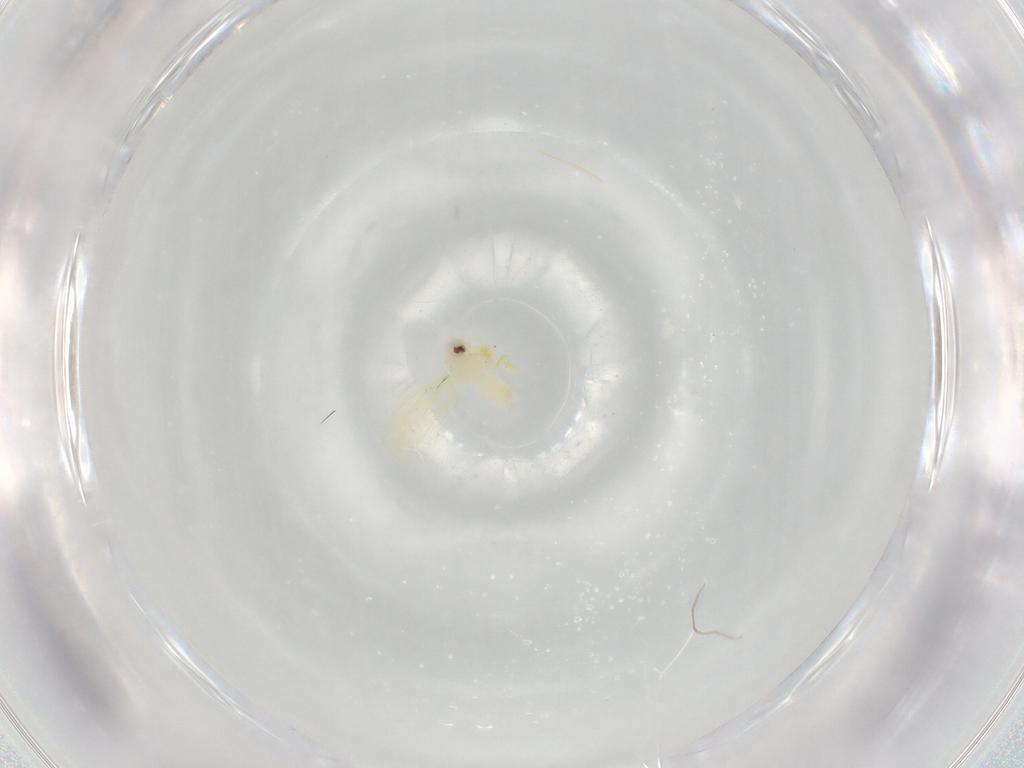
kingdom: Animalia
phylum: Arthropoda
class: Insecta
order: Hemiptera
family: Aleyrodidae
